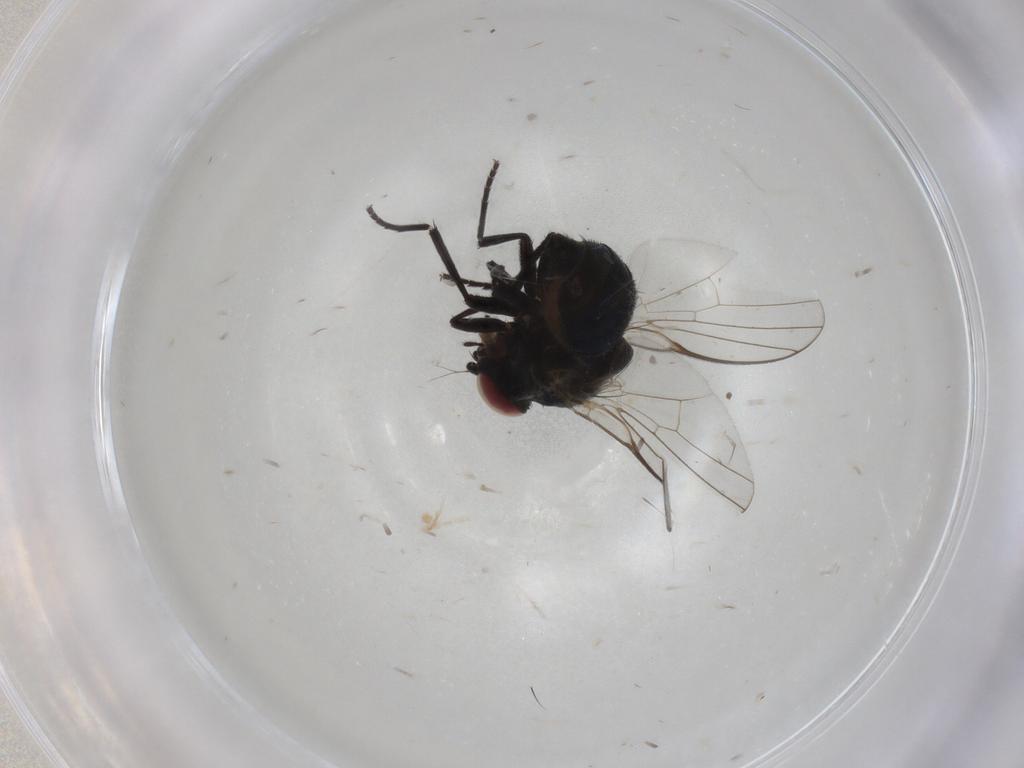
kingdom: Animalia
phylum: Arthropoda
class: Insecta
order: Diptera
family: Agromyzidae
